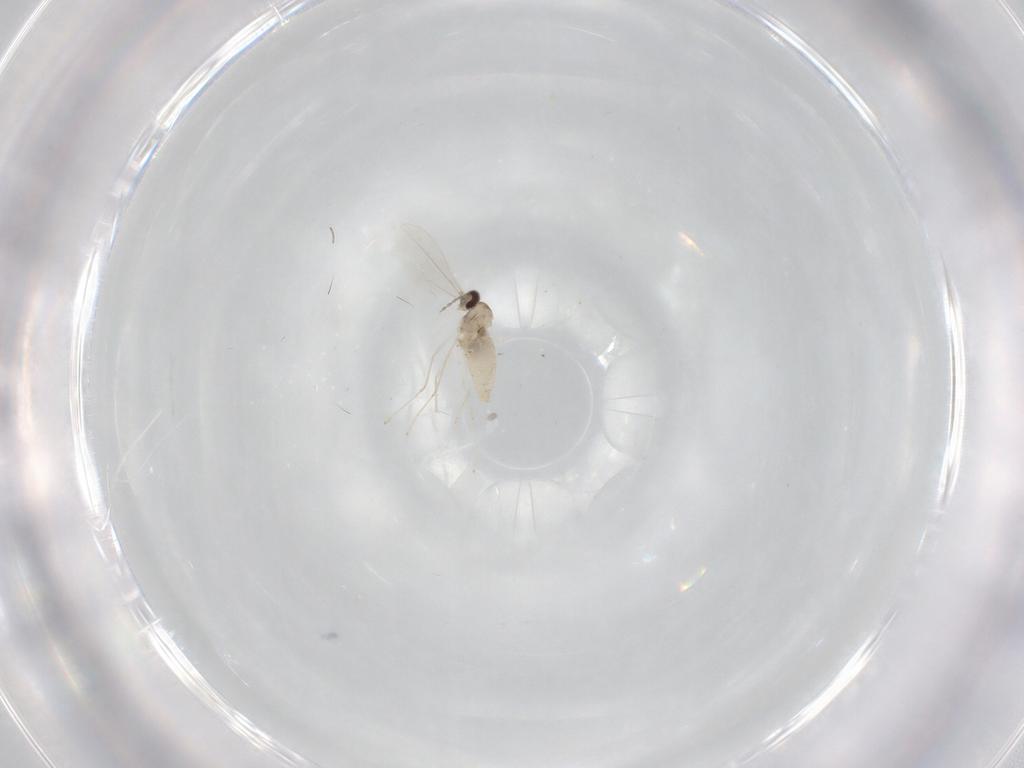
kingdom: Animalia
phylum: Arthropoda
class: Insecta
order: Diptera
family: Cecidomyiidae
